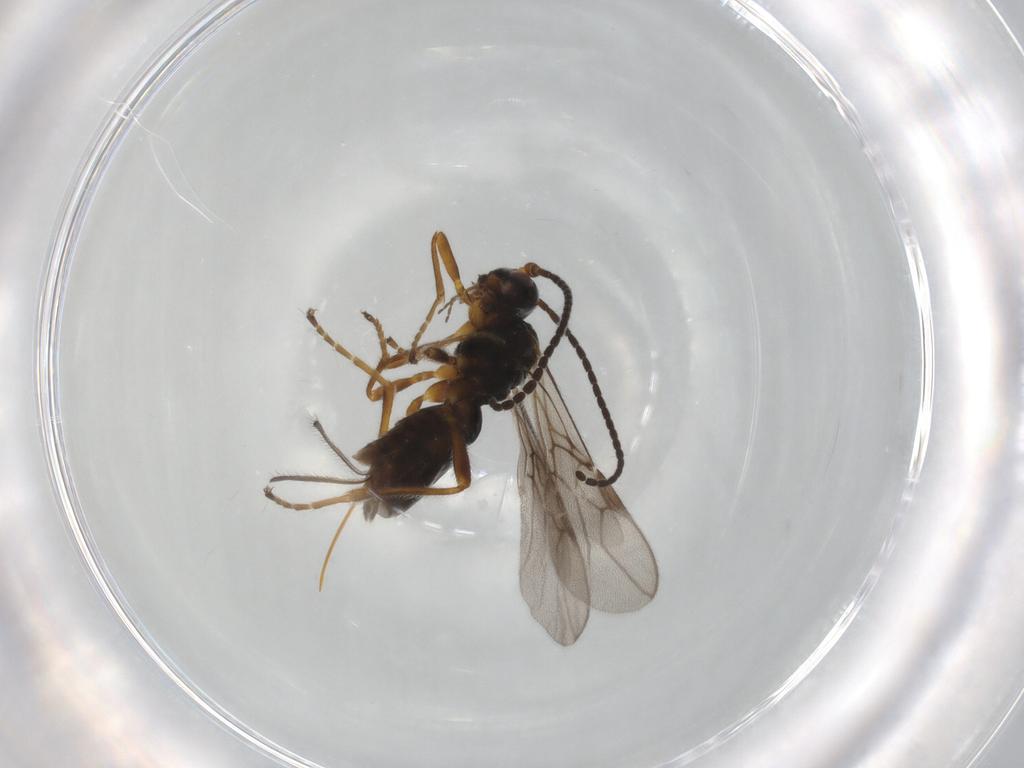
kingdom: Animalia
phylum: Arthropoda
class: Insecta
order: Hymenoptera
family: Braconidae
